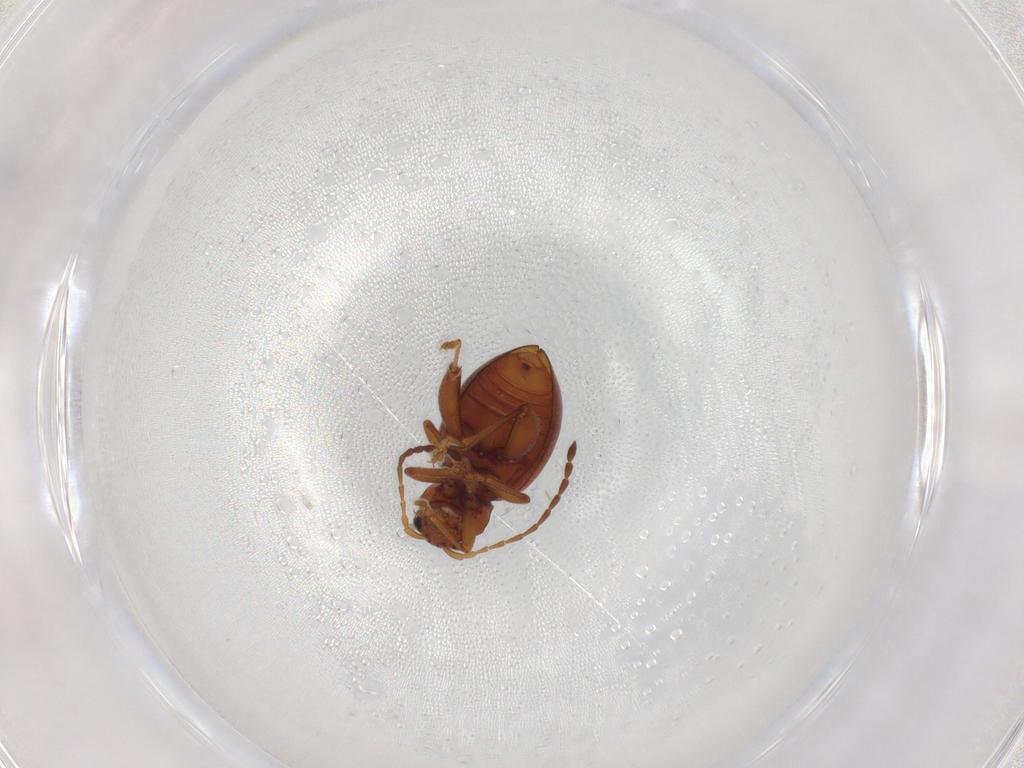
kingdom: Animalia
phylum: Arthropoda
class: Insecta
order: Coleoptera
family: Chrysomelidae
